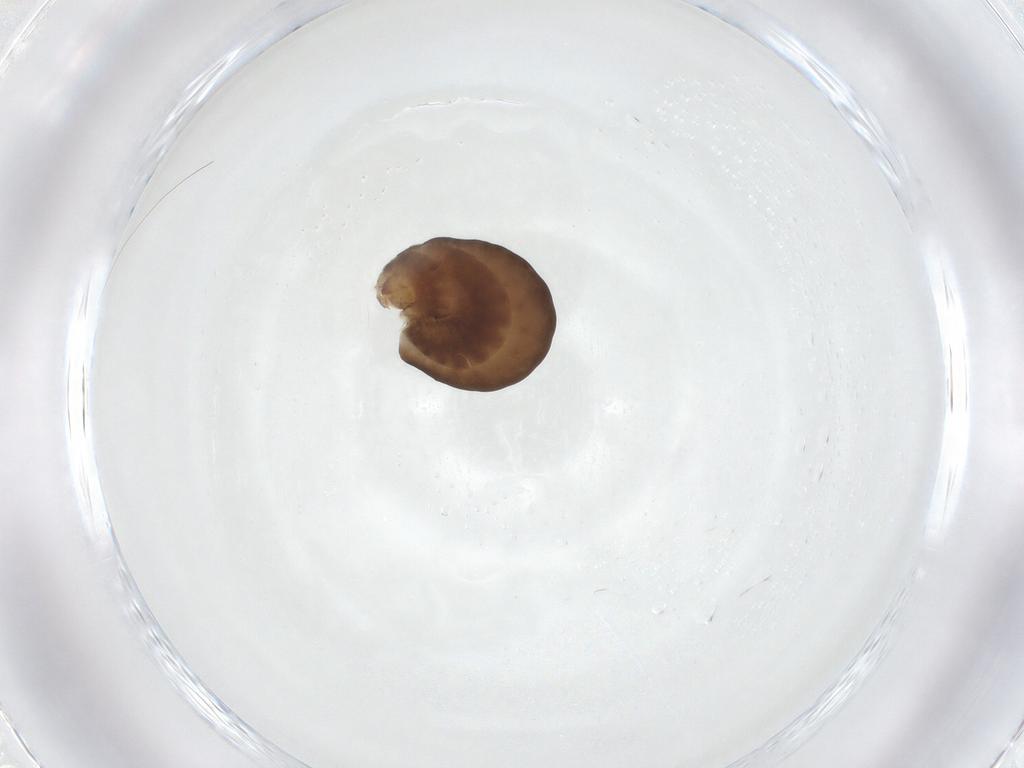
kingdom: Animalia
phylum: Arthropoda
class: Insecta
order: Hymenoptera
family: Dryinidae
